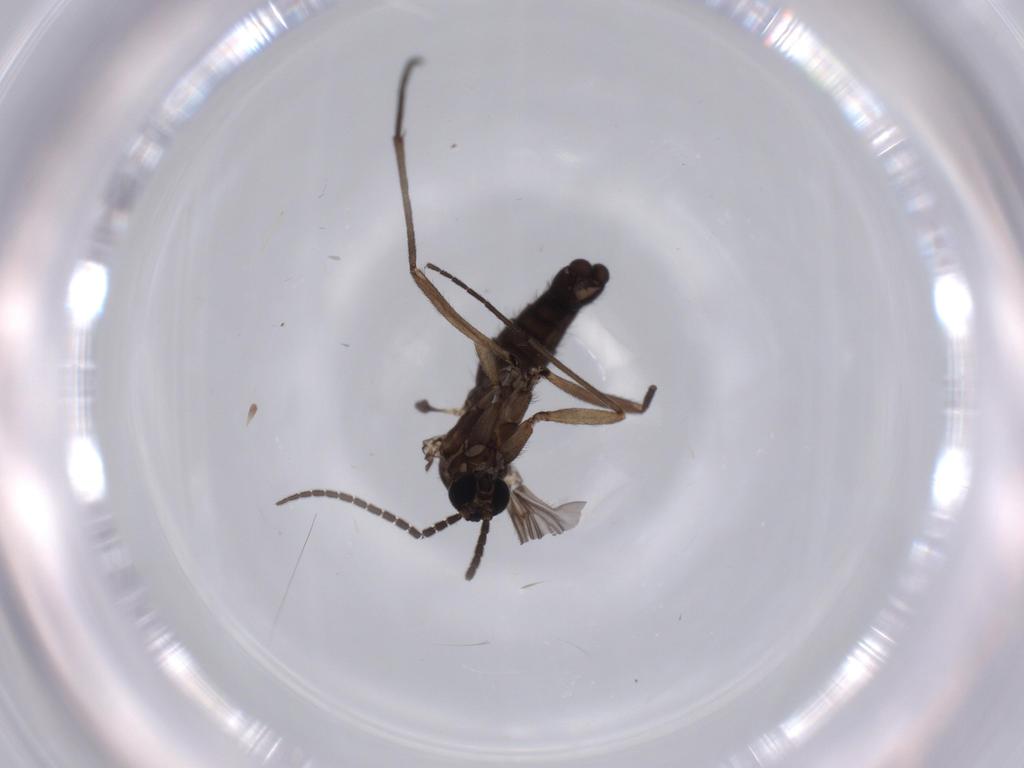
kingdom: Animalia
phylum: Arthropoda
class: Insecta
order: Diptera
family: Sciaridae
